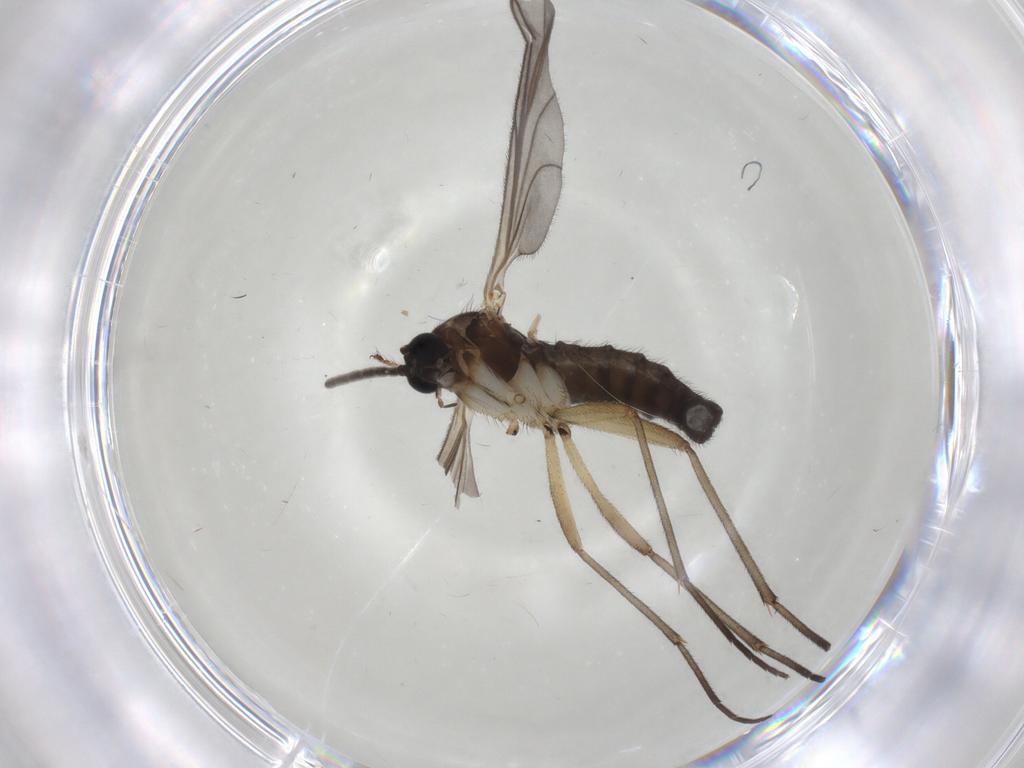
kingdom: Animalia
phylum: Arthropoda
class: Insecta
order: Diptera
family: Sciaridae
